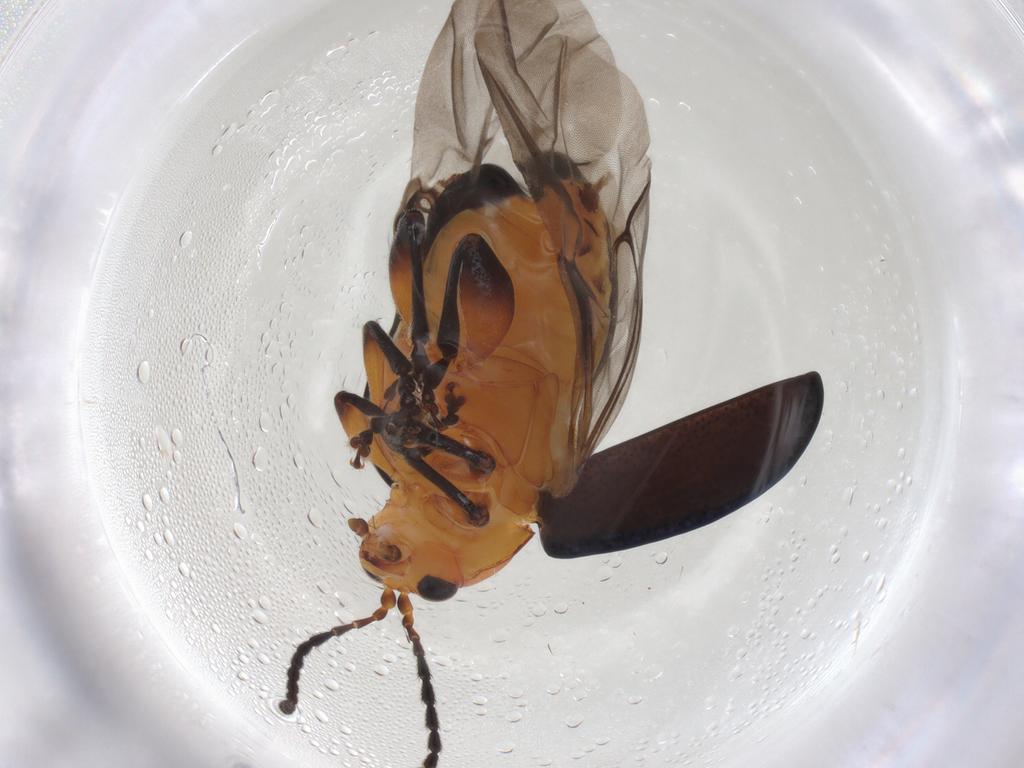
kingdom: Animalia
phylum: Arthropoda
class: Insecta
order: Coleoptera
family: Chrysomelidae
